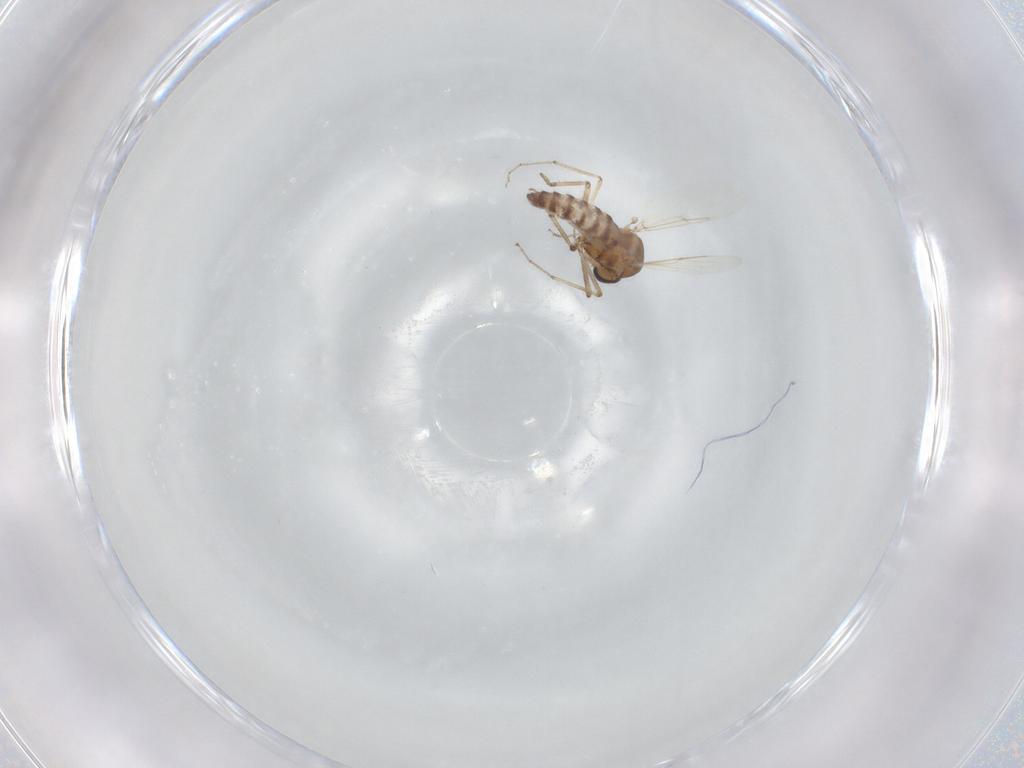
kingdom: Animalia
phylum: Arthropoda
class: Insecta
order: Diptera
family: Ceratopogonidae
